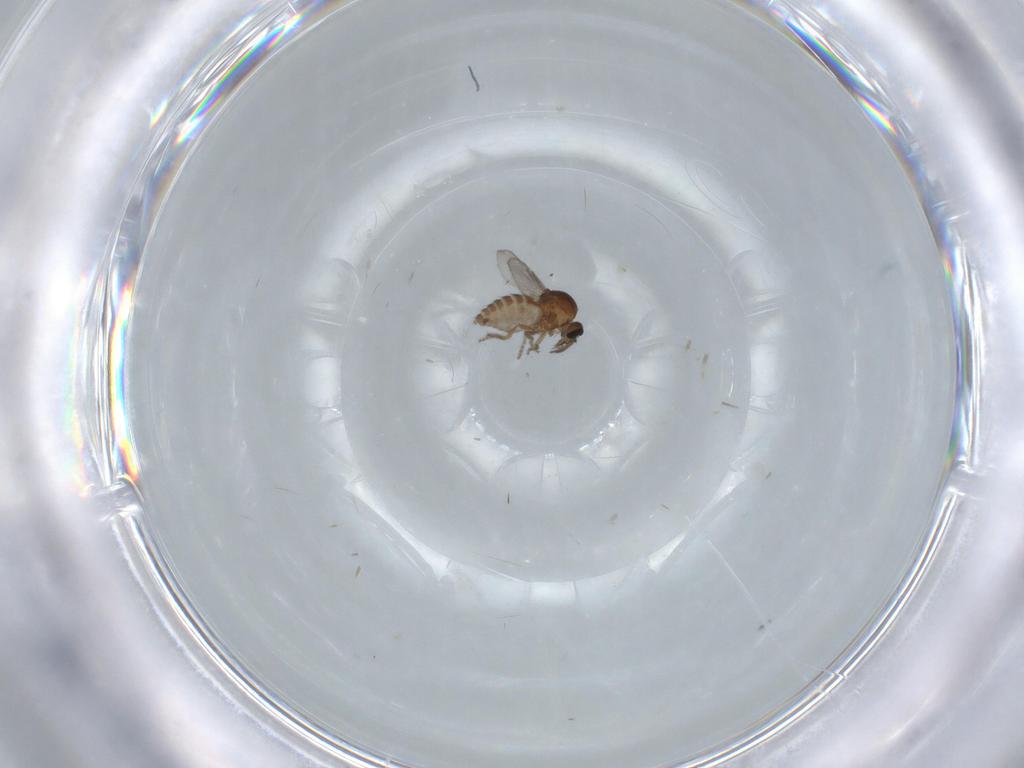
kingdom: Animalia
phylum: Arthropoda
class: Insecta
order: Diptera
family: Ceratopogonidae
